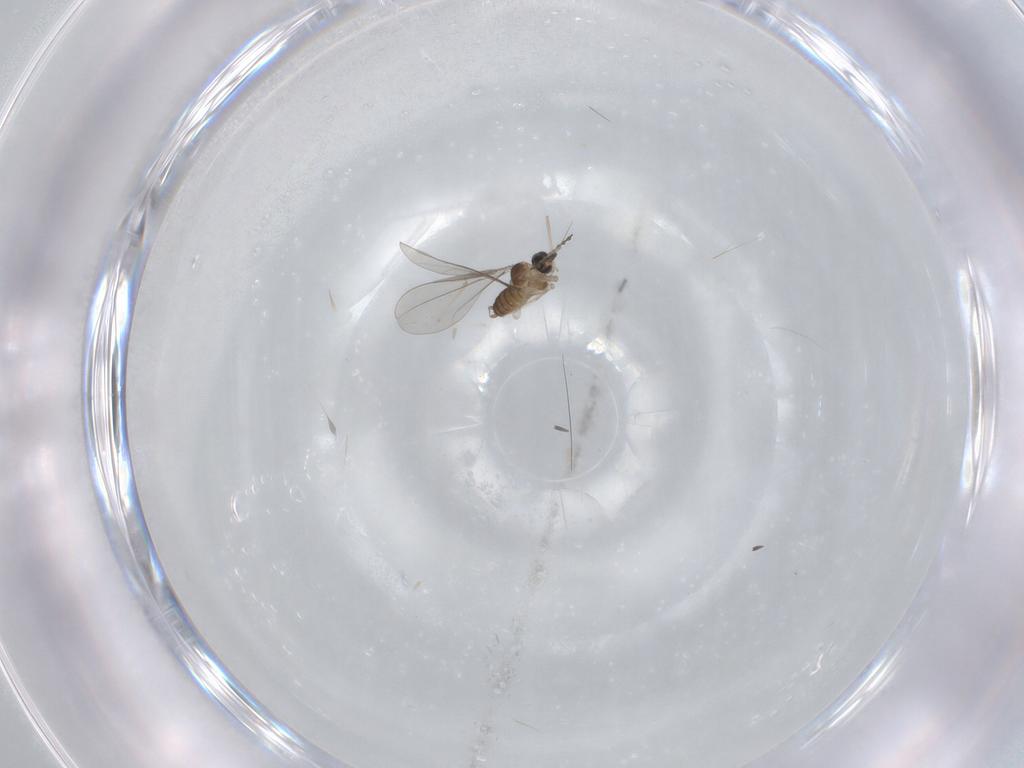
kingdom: Animalia
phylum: Arthropoda
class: Insecta
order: Diptera
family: Cecidomyiidae
